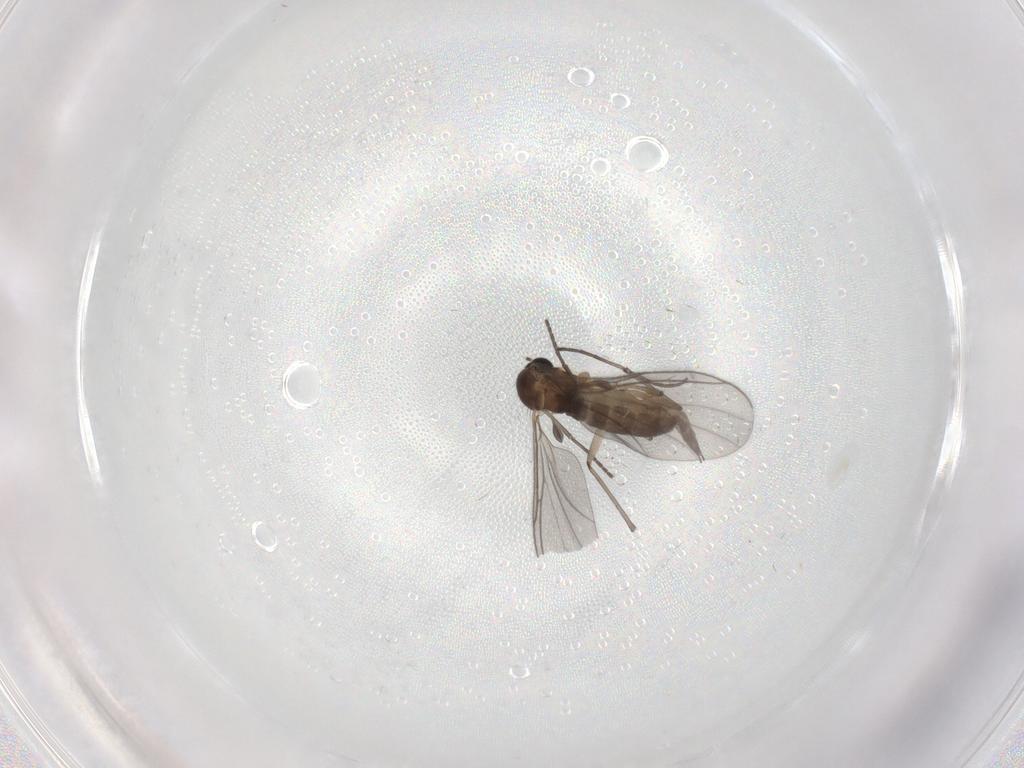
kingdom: Animalia
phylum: Arthropoda
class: Insecta
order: Diptera
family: Sciaridae
